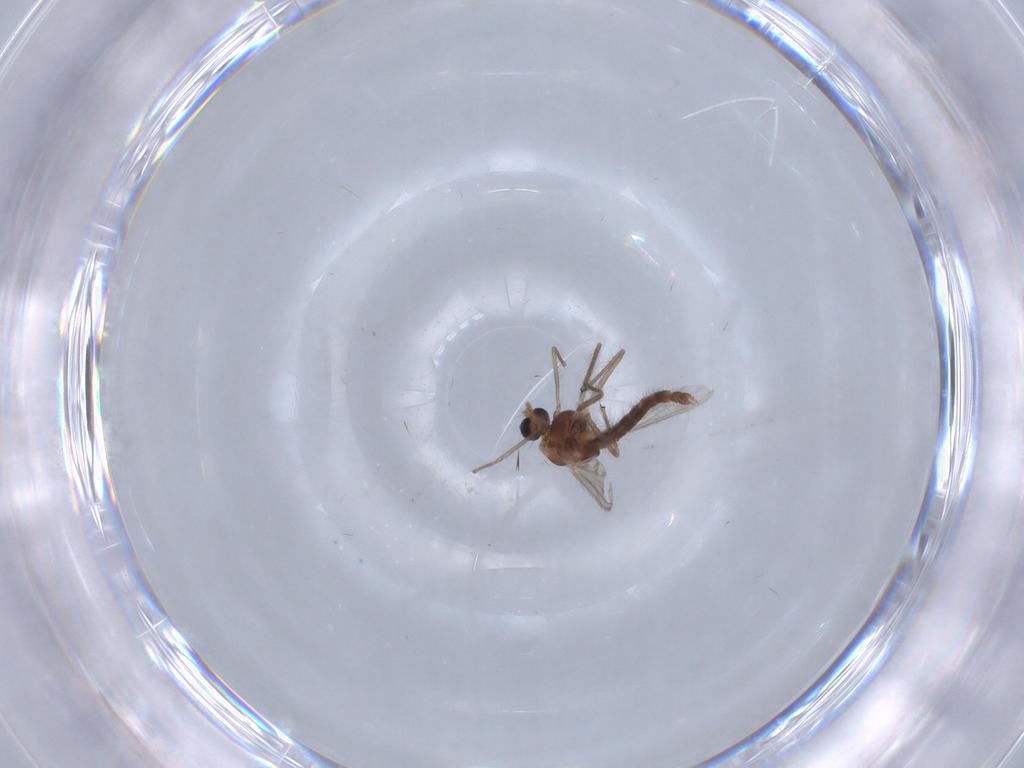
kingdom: Animalia
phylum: Arthropoda
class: Insecta
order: Diptera
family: Chironomidae
